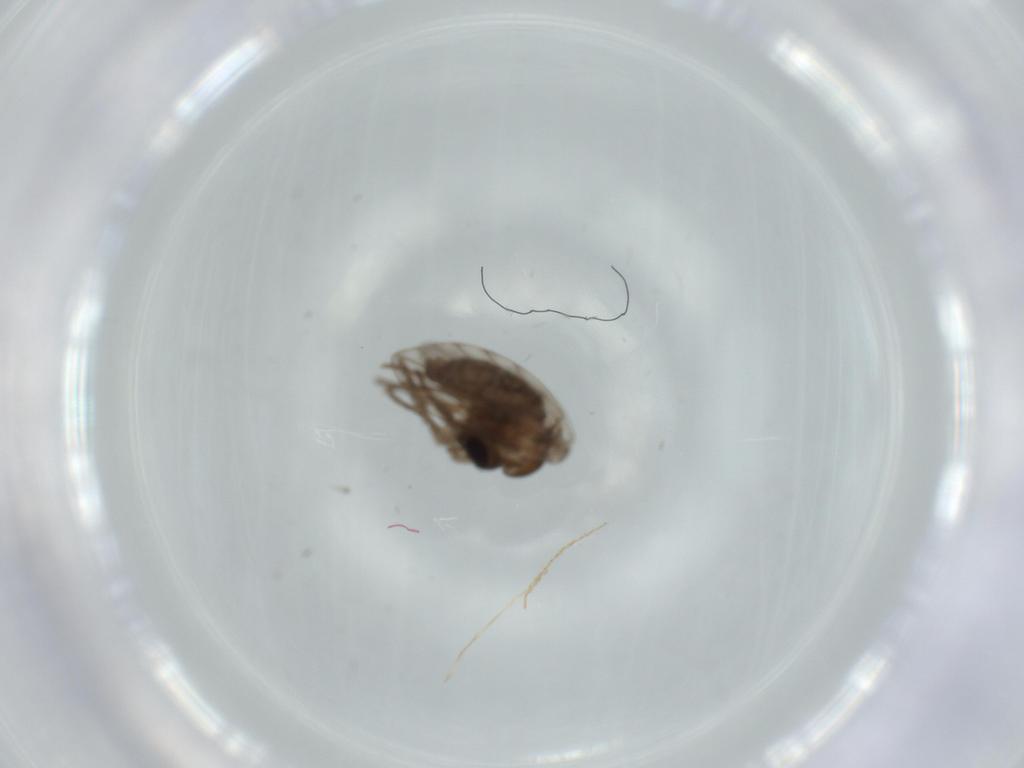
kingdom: Animalia
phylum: Arthropoda
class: Insecta
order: Diptera
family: Psychodidae
